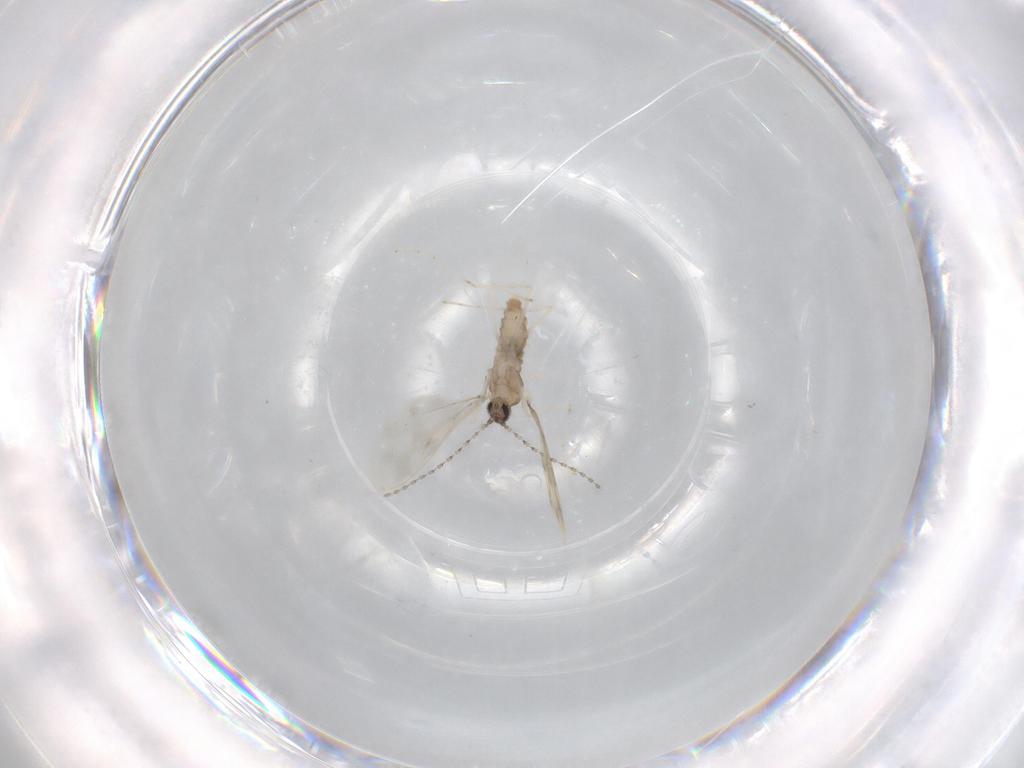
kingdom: Animalia
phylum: Arthropoda
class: Insecta
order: Diptera
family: Cecidomyiidae
